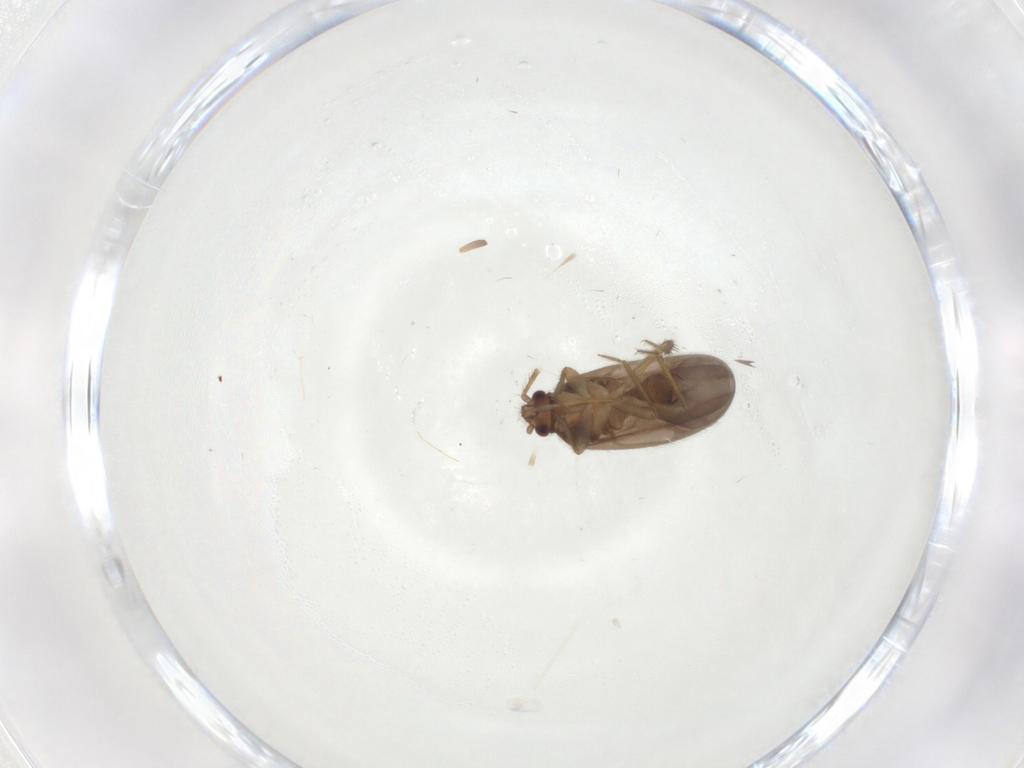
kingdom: Animalia
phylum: Arthropoda
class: Insecta
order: Hemiptera
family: Ceratocombidae
